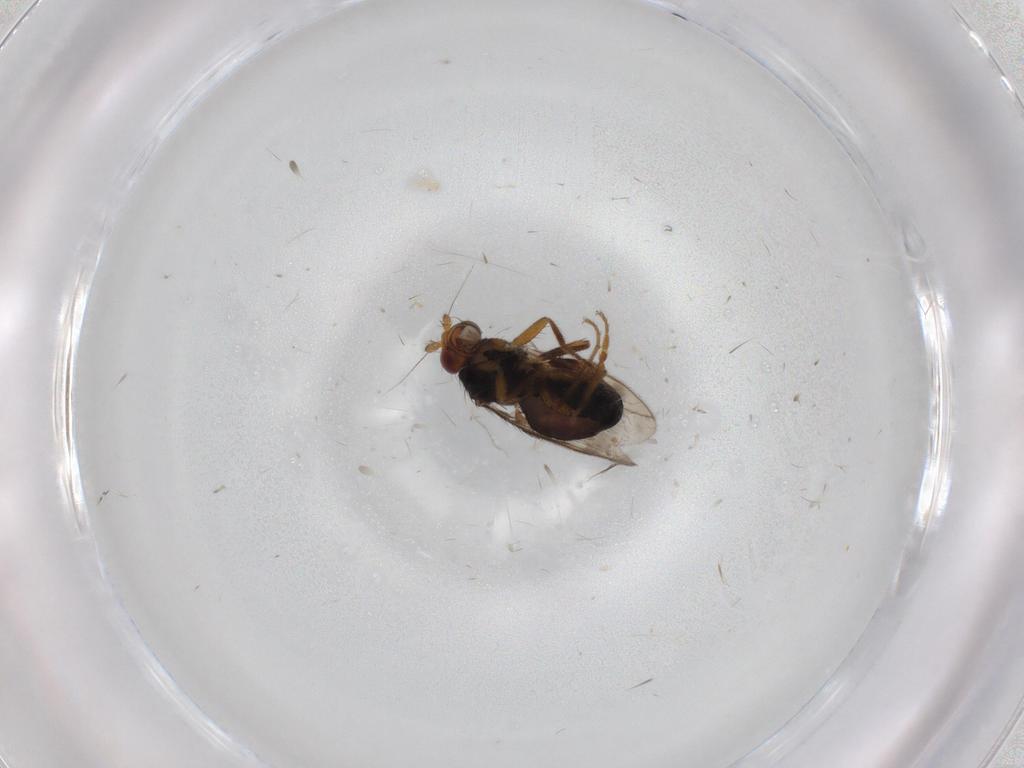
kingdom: Animalia
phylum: Arthropoda
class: Insecta
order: Diptera
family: Sphaeroceridae
